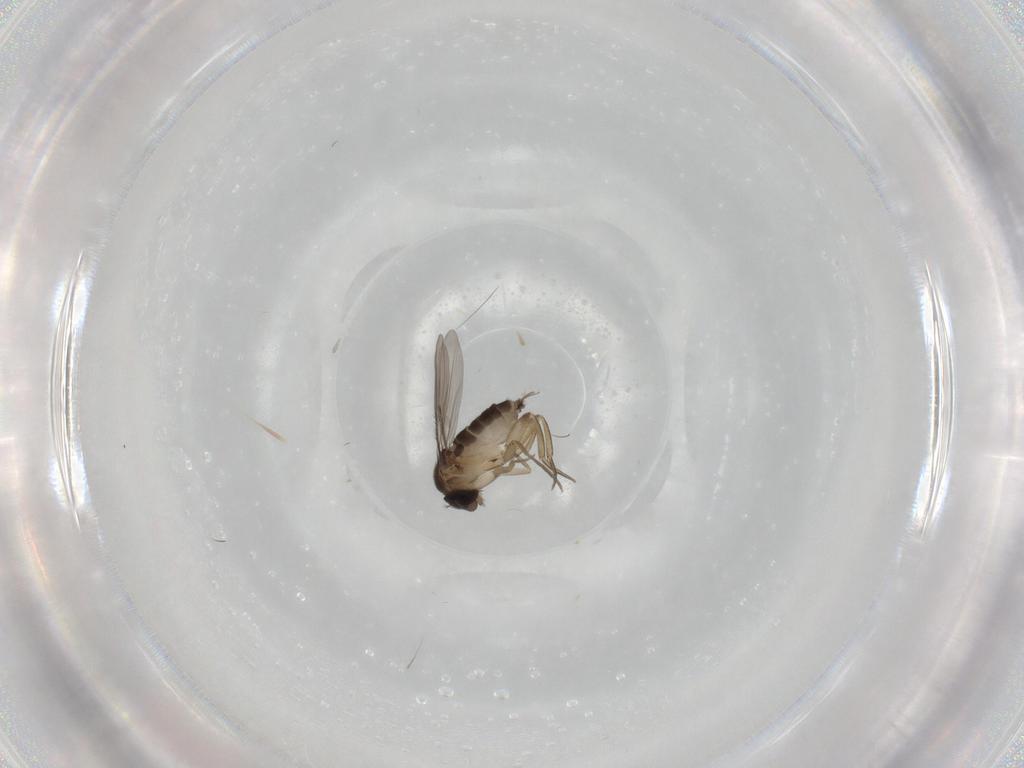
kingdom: Animalia
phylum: Arthropoda
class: Insecta
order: Diptera
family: Phoridae
